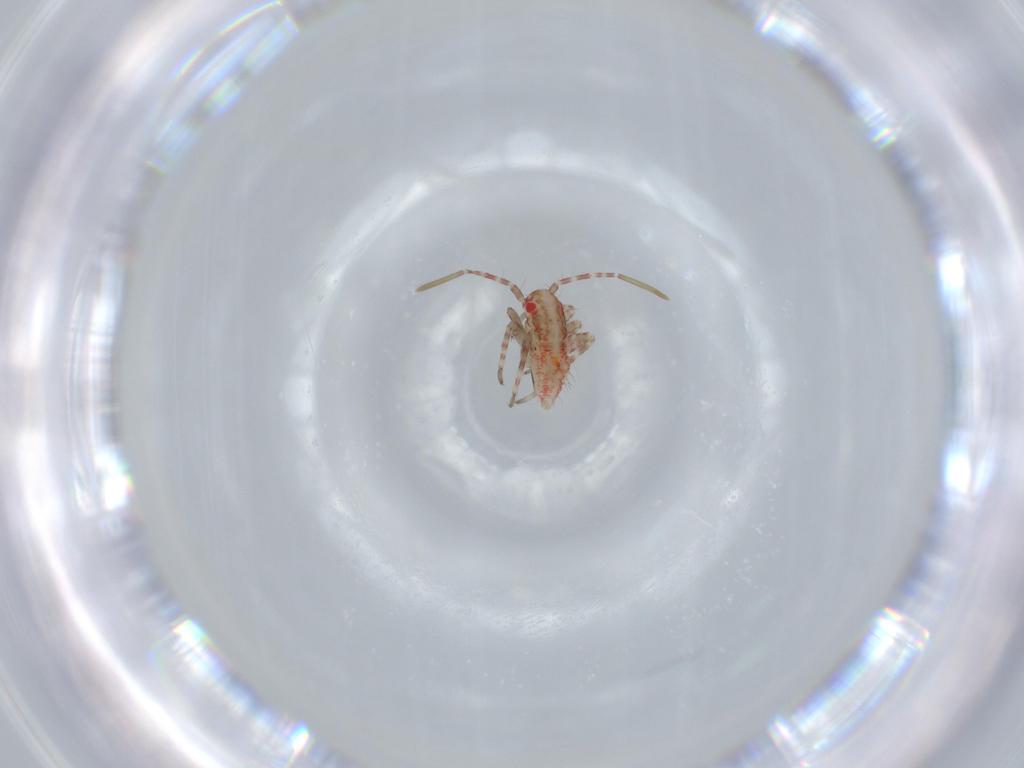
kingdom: Animalia
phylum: Arthropoda
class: Insecta
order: Hemiptera
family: Miridae
